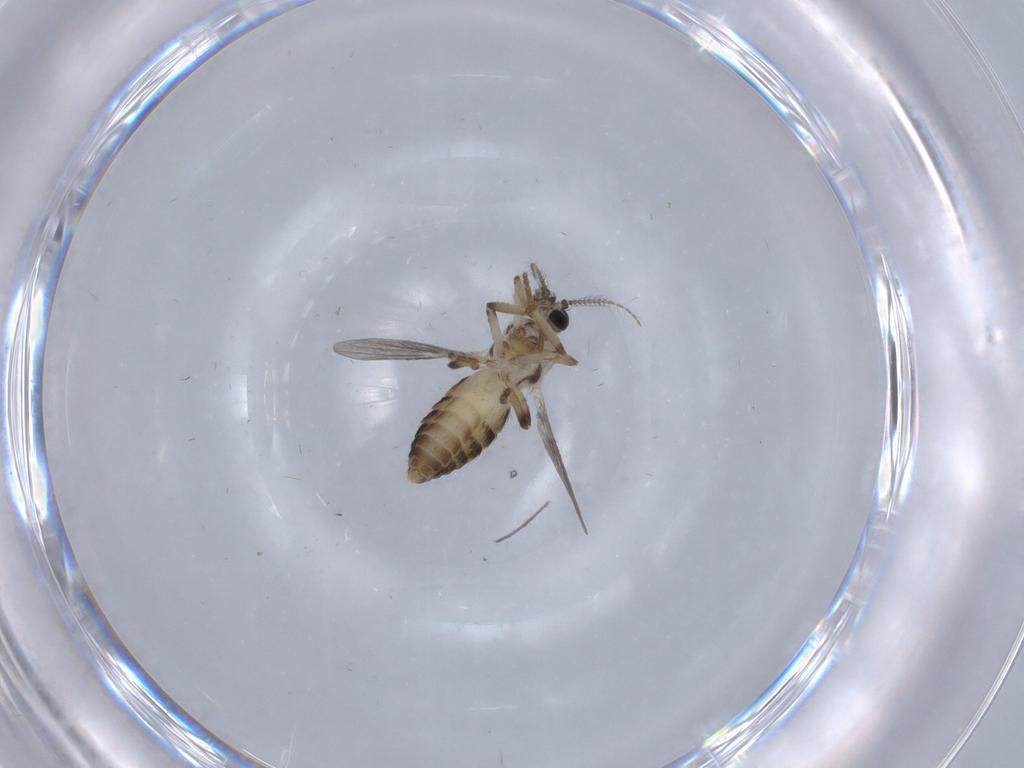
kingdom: Animalia
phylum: Arthropoda
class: Insecta
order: Diptera
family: Ceratopogonidae
